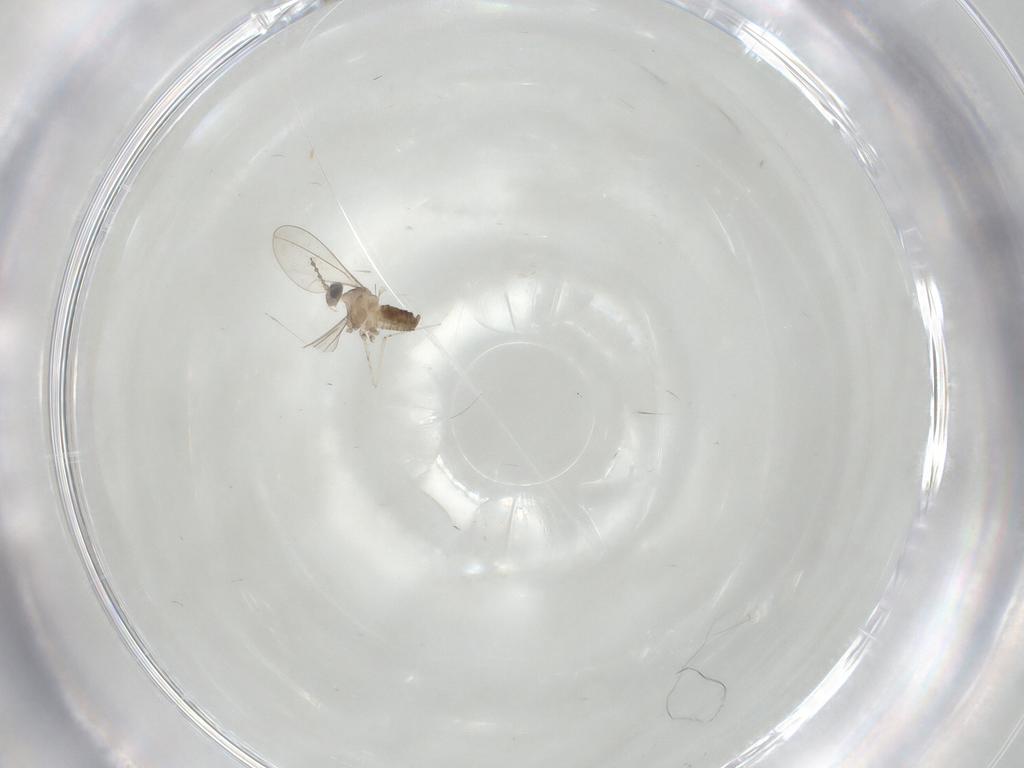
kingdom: Animalia
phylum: Arthropoda
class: Insecta
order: Diptera
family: Cecidomyiidae
